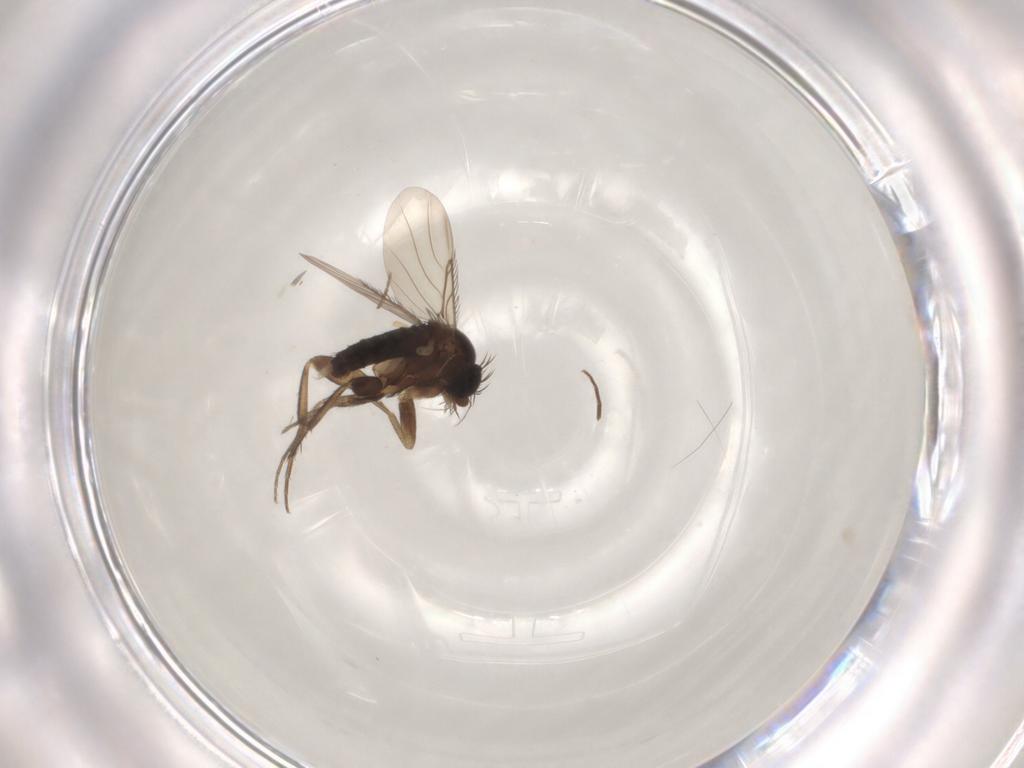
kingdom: Animalia
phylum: Arthropoda
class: Insecta
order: Diptera
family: Phoridae
